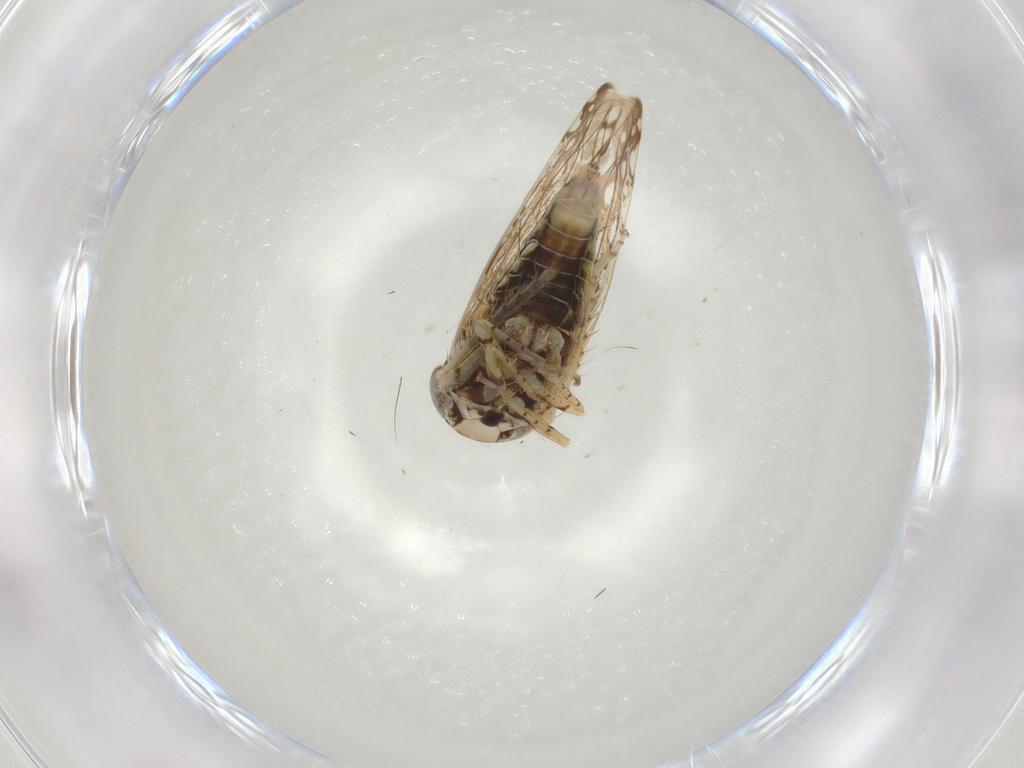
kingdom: Animalia
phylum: Arthropoda
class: Insecta
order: Hemiptera
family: Cicadellidae
